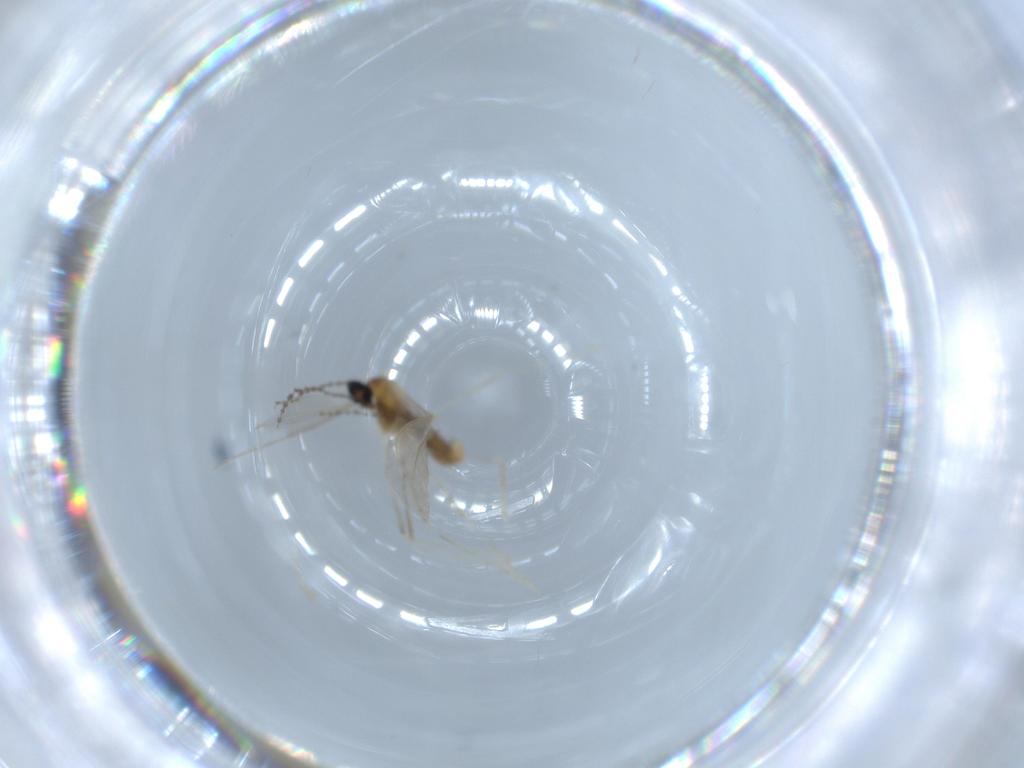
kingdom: Animalia
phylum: Arthropoda
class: Insecta
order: Diptera
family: Cecidomyiidae
